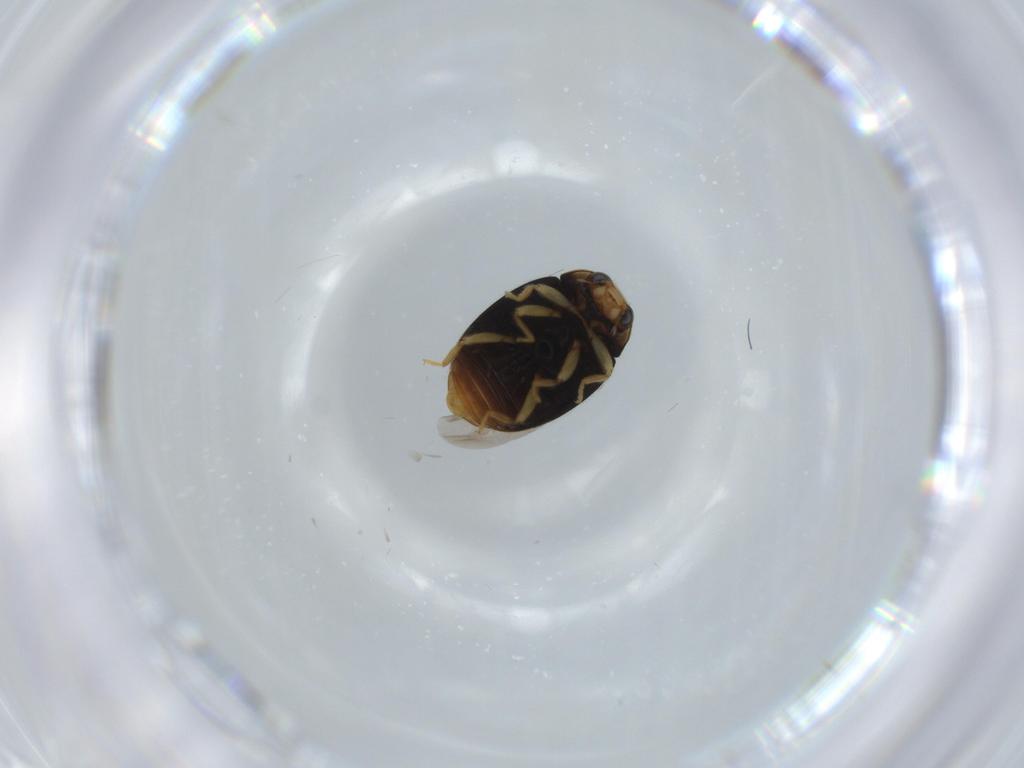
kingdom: Animalia
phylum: Arthropoda
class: Insecta
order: Coleoptera
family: Coccinellidae
